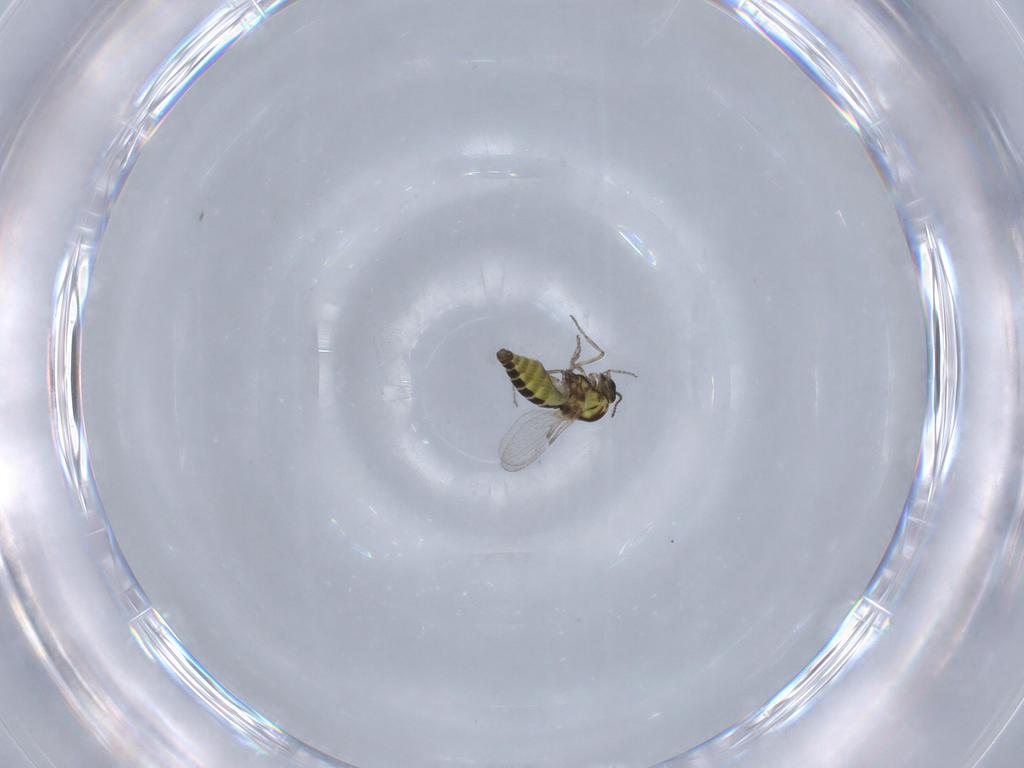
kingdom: Animalia
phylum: Arthropoda
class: Insecta
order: Diptera
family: Ceratopogonidae
